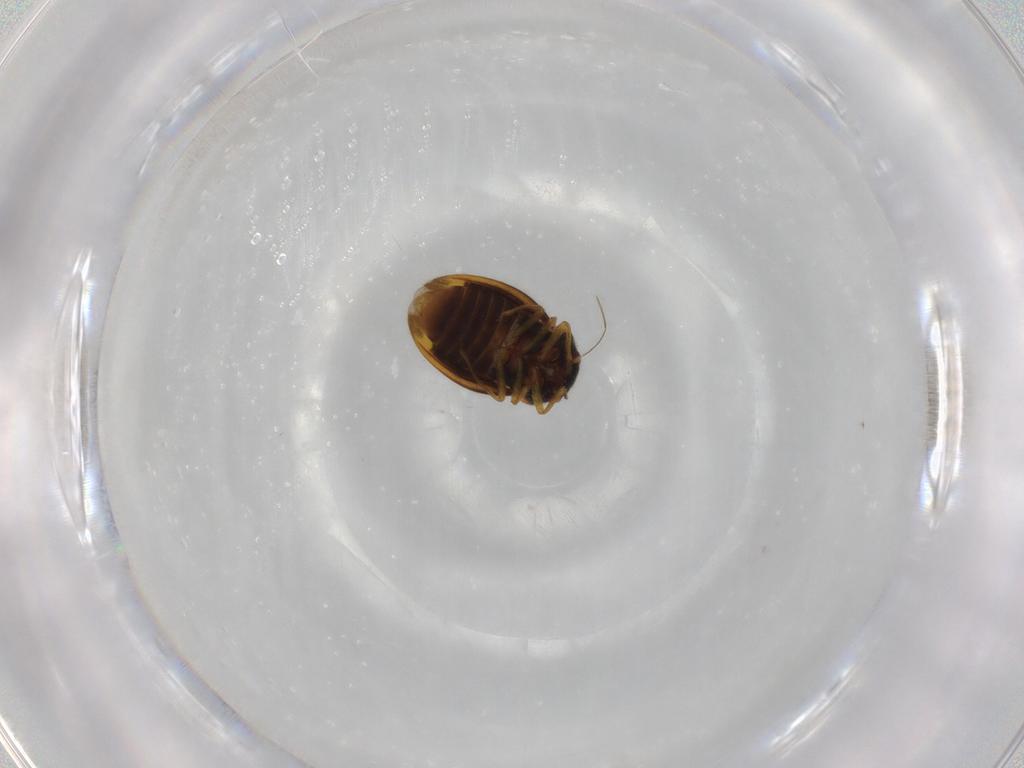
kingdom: Animalia
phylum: Arthropoda
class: Insecta
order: Hemiptera
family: Schizopteridae
